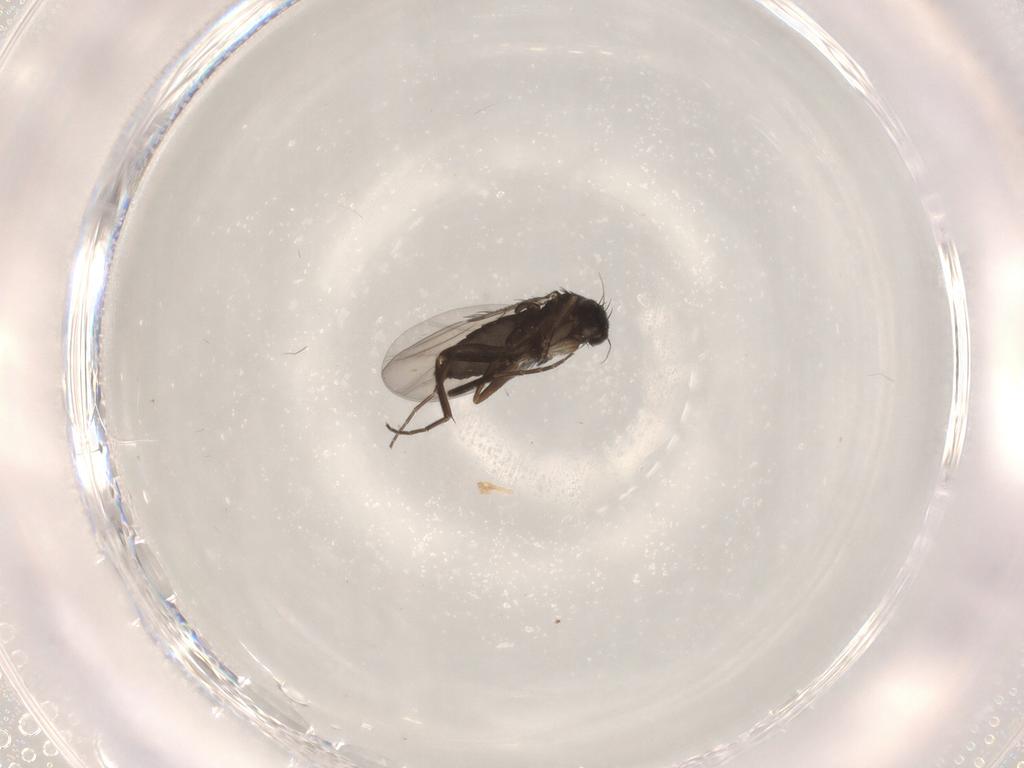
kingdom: Animalia
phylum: Arthropoda
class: Insecta
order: Diptera
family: Phoridae
